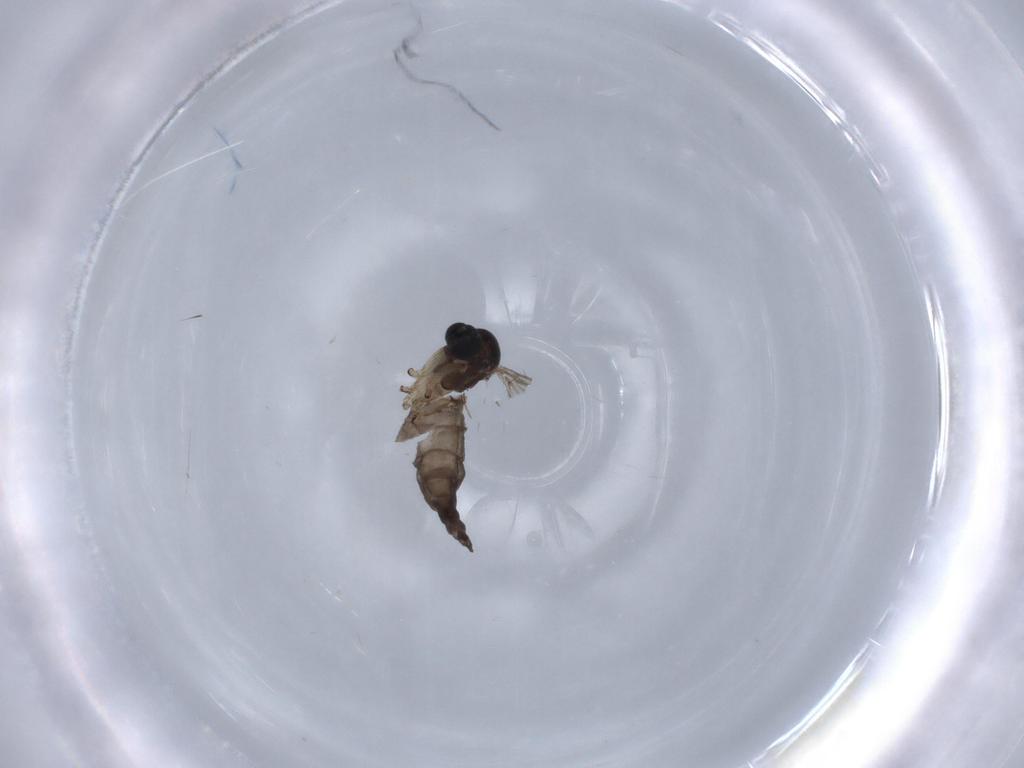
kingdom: Animalia
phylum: Arthropoda
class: Insecta
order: Diptera
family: Sciaridae
